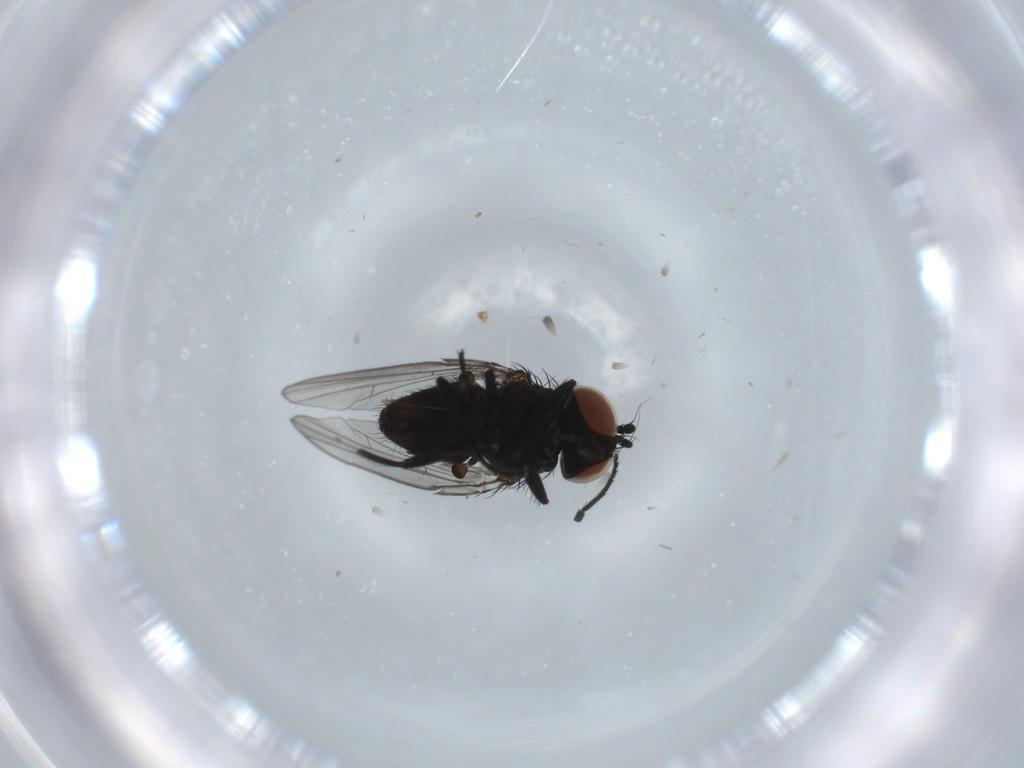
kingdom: Animalia
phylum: Arthropoda
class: Insecta
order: Diptera
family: Milichiidae
